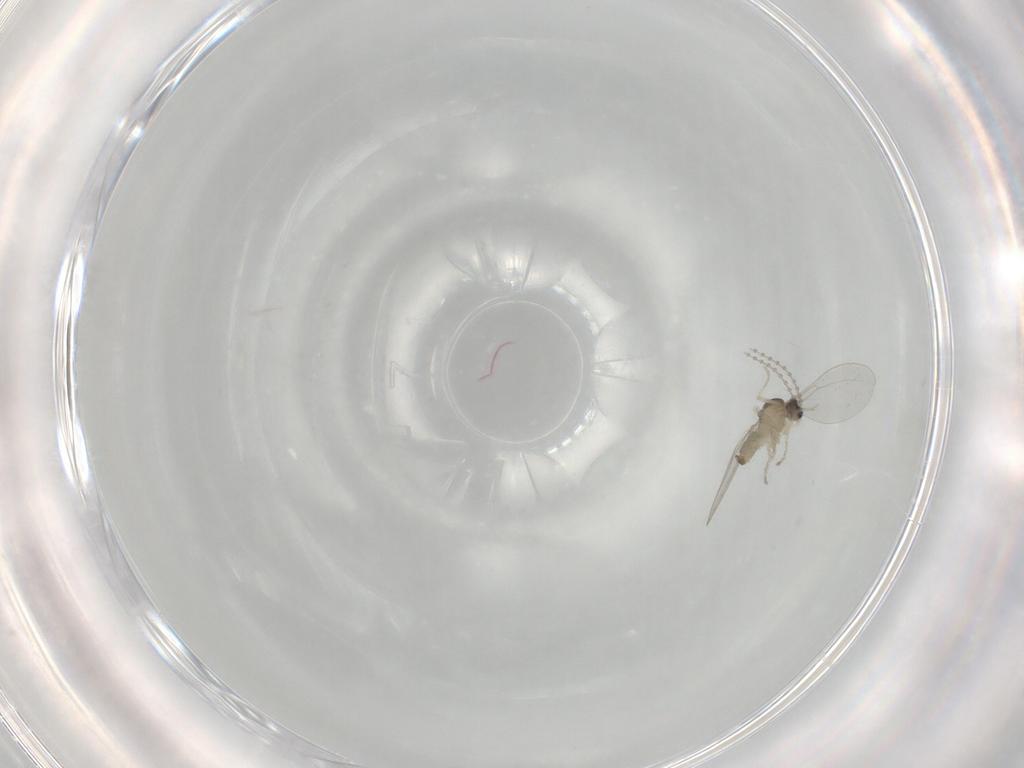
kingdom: Animalia
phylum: Arthropoda
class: Insecta
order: Diptera
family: Cecidomyiidae
